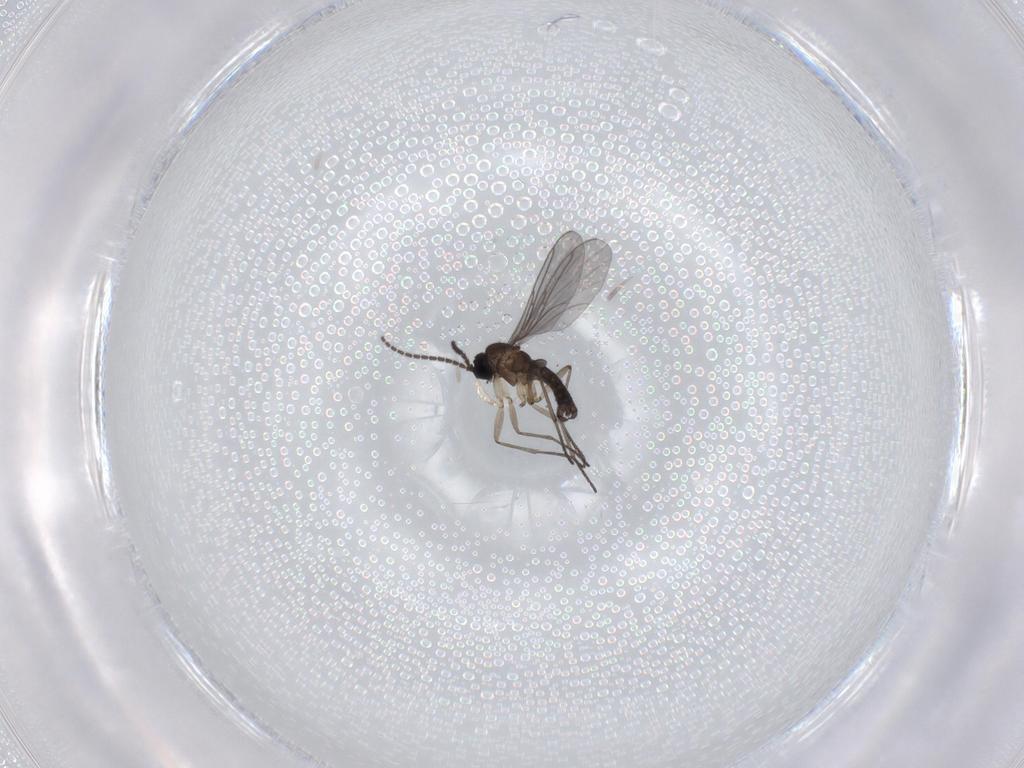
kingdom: Animalia
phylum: Arthropoda
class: Insecta
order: Diptera
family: Sciaridae
